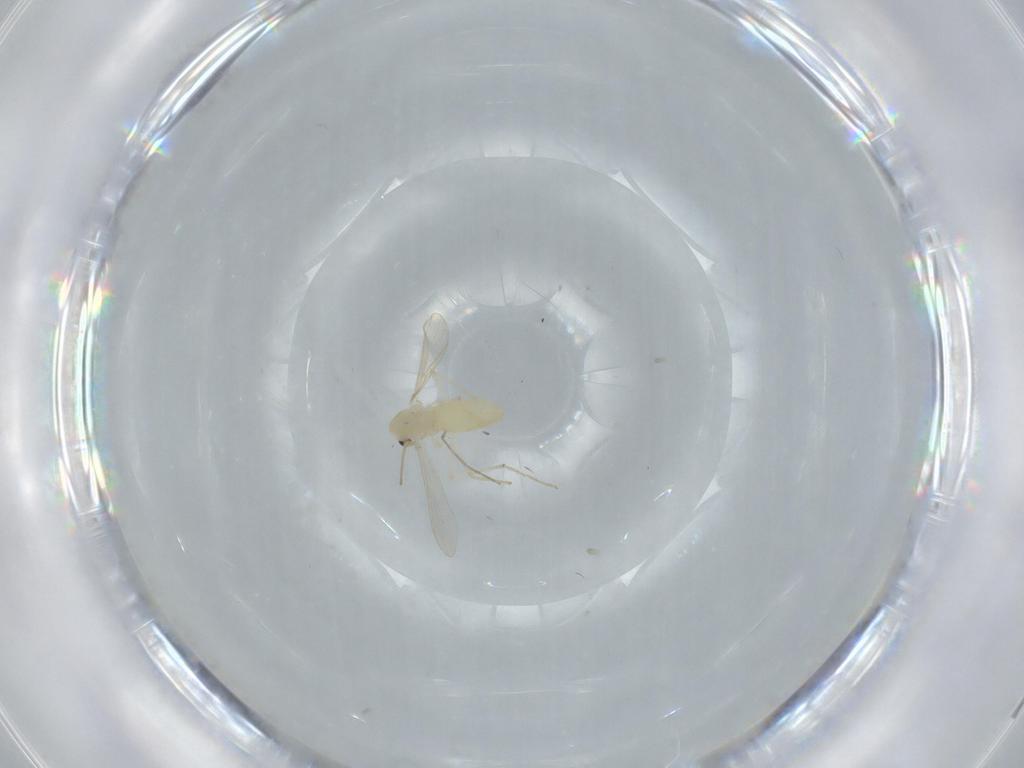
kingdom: Animalia
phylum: Arthropoda
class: Insecta
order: Diptera
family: Chironomidae
